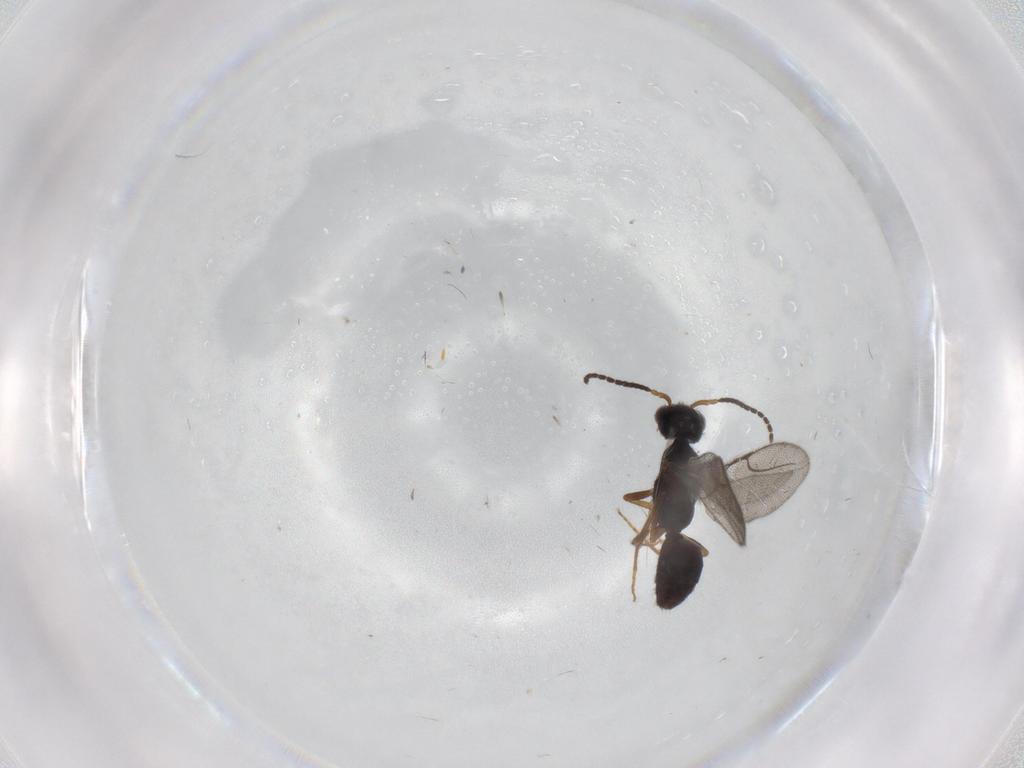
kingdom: Animalia
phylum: Arthropoda
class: Insecta
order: Hymenoptera
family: Bethylidae
